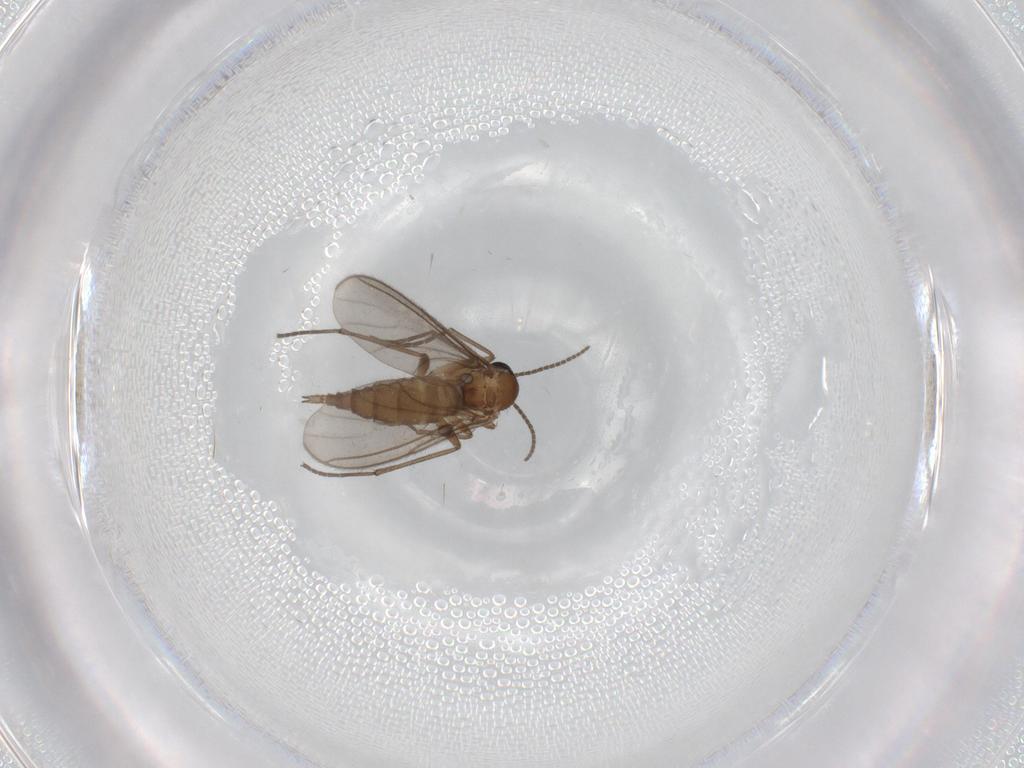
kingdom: Animalia
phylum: Arthropoda
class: Insecta
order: Diptera
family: Sciaridae
